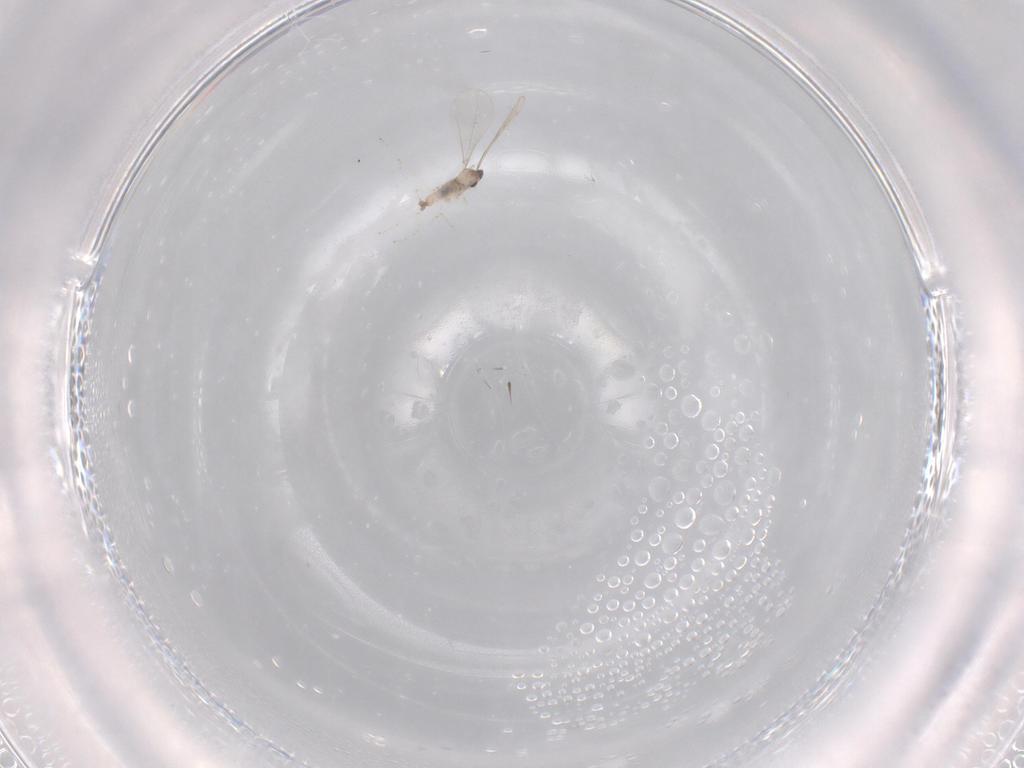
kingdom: Animalia
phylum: Arthropoda
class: Insecta
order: Diptera
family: Cecidomyiidae
